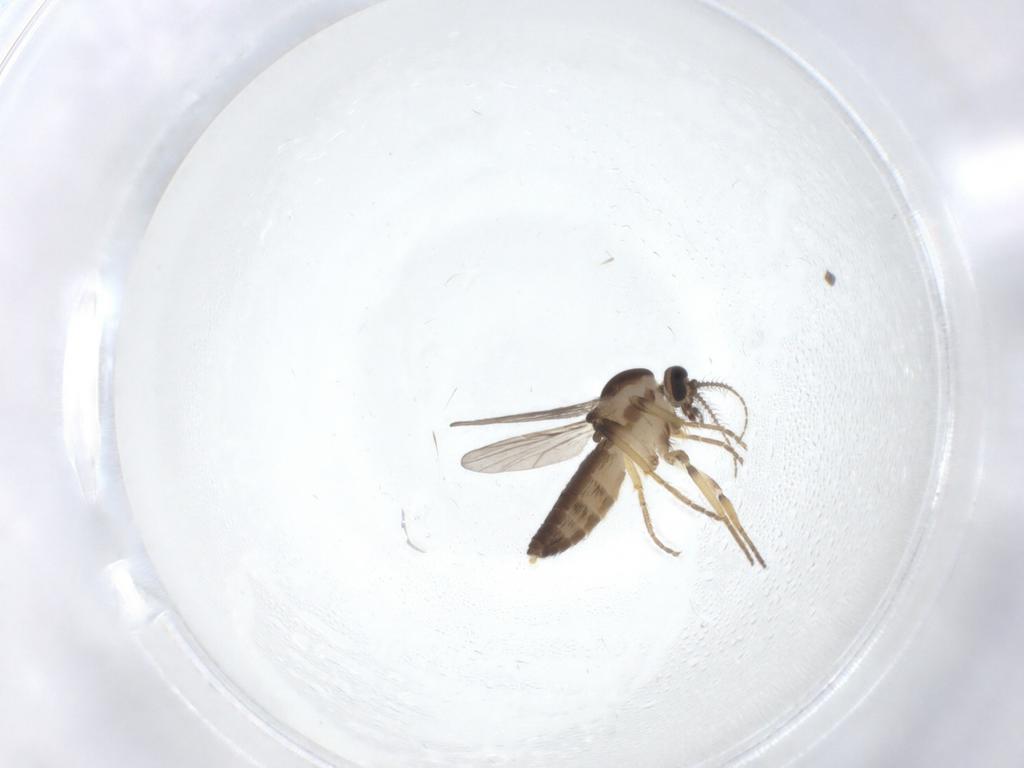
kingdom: Animalia
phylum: Arthropoda
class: Insecta
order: Diptera
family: Ceratopogonidae
